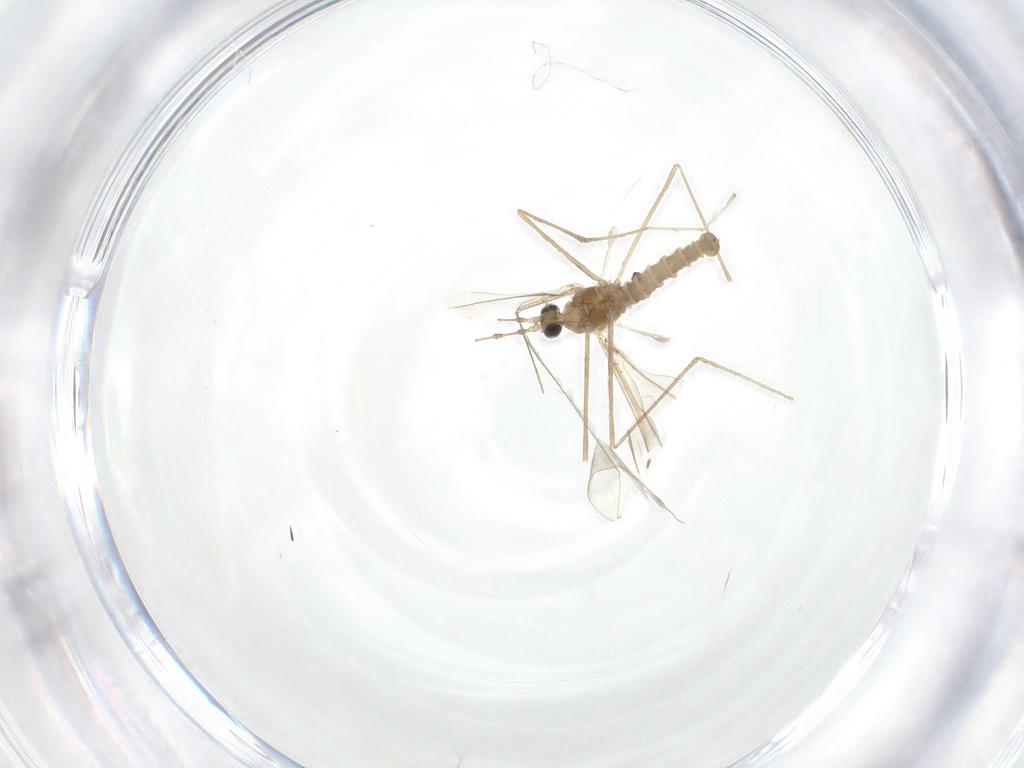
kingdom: Animalia
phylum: Arthropoda
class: Insecta
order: Diptera
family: Cecidomyiidae
